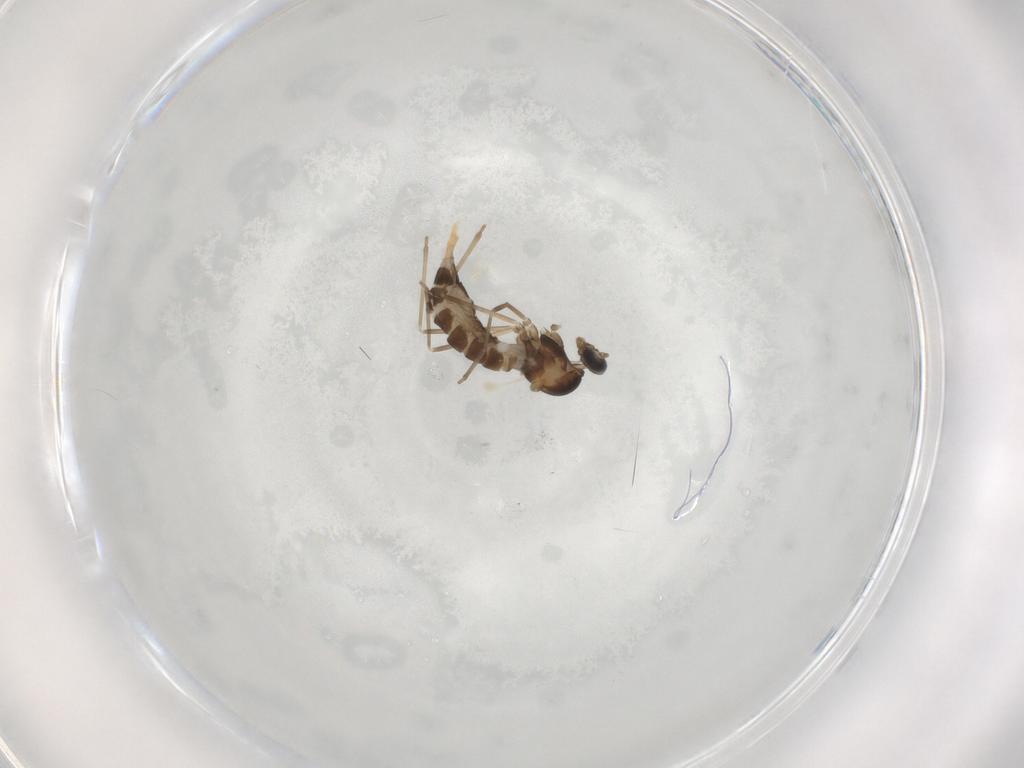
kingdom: Animalia
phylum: Arthropoda
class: Insecta
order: Diptera
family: Cecidomyiidae
